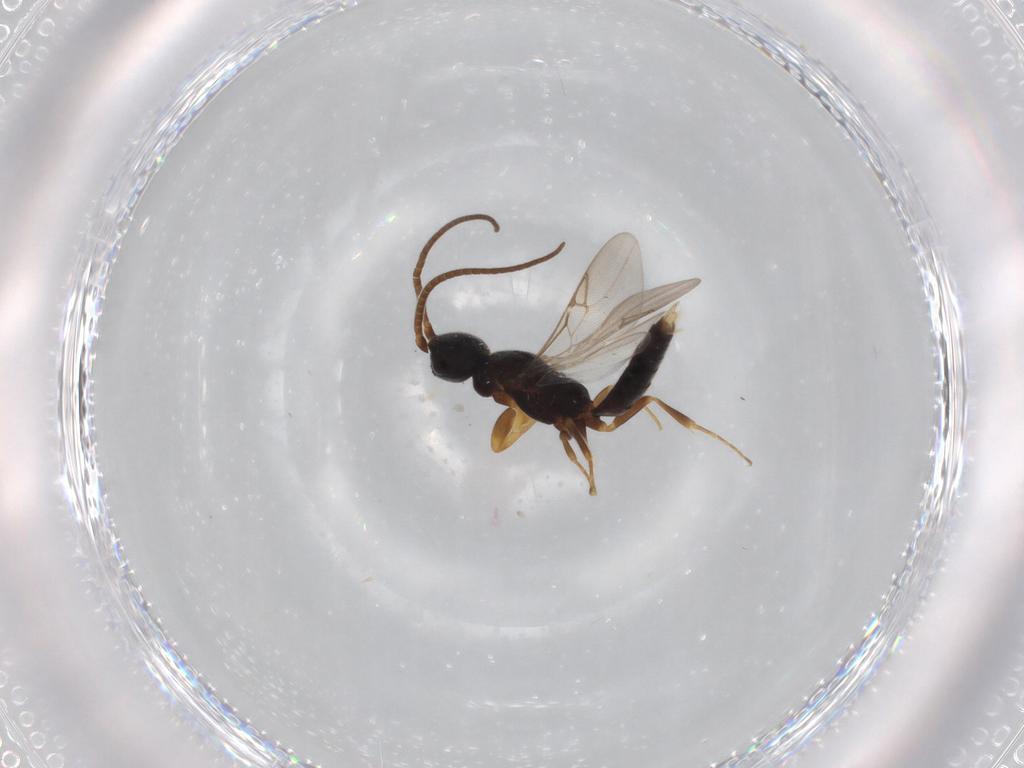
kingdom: Animalia
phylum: Arthropoda
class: Insecta
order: Hymenoptera
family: Sclerogibbidae
